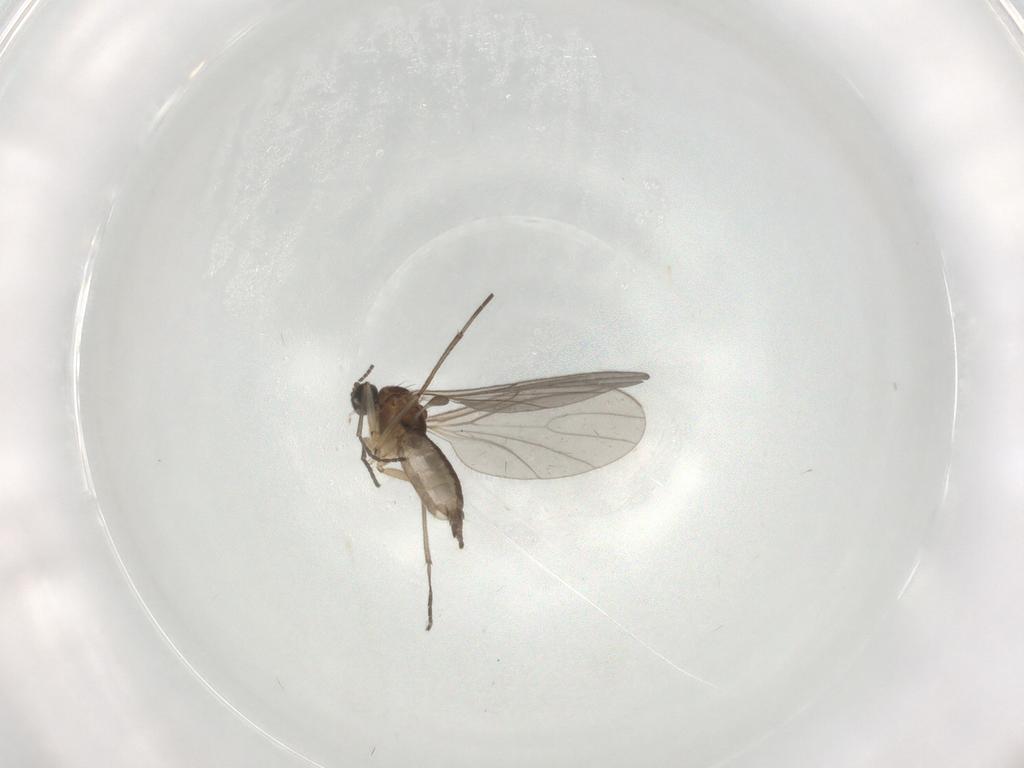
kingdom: Animalia
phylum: Arthropoda
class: Insecta
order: Diptera
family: Sciaridae
